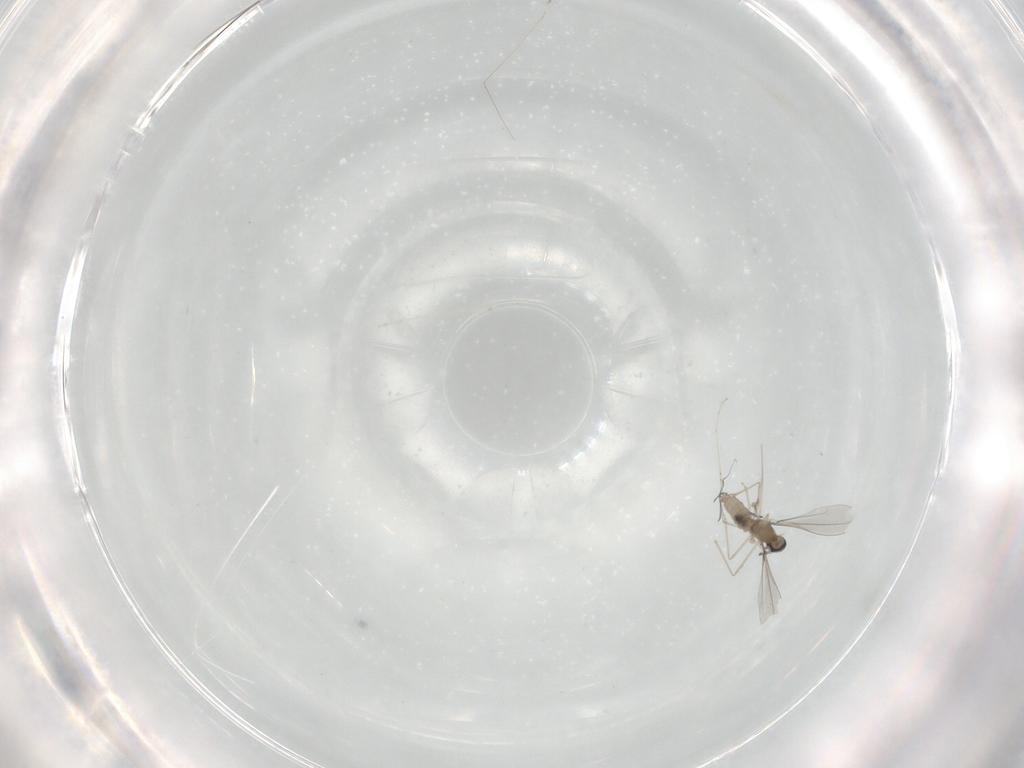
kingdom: Animalia
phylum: Arthropoda
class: Insecta
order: Diptera
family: Cecidomyiidae
